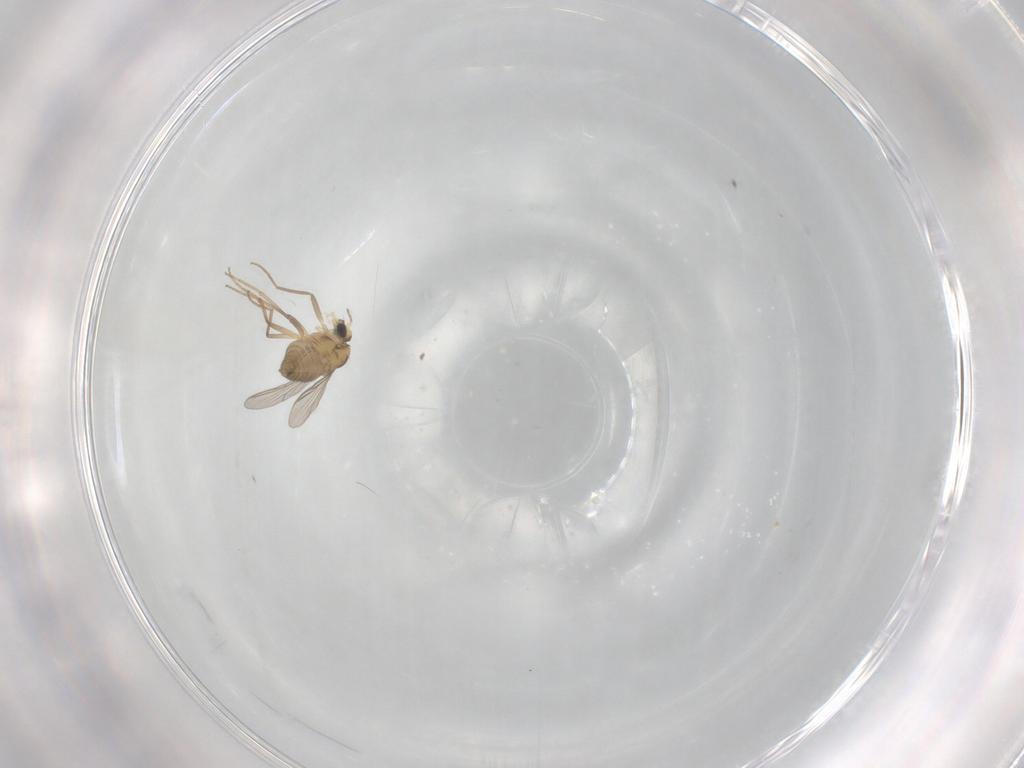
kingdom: Animalia
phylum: Arthropoda
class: Insecta
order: Diptera
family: Chironomidae
